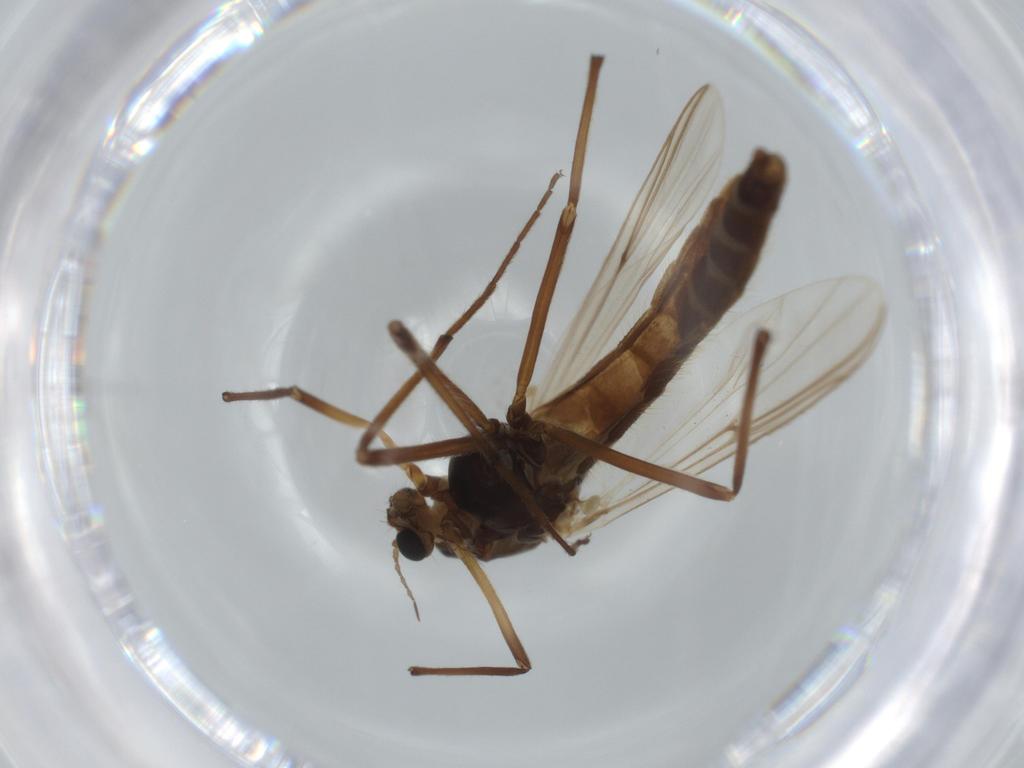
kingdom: Animalia
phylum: Arthropoda
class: Insecta
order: Diptera
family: Chironomidae
